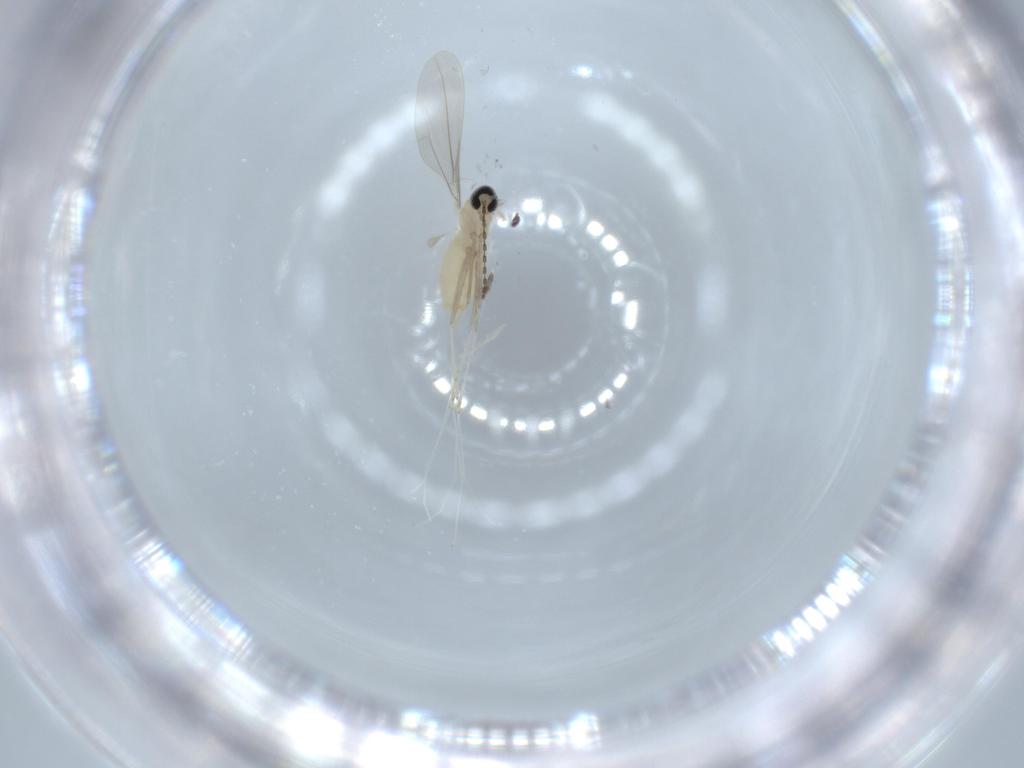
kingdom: Animalia
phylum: Arthropoda
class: Insecta
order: Diptera
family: Cecidomyiidae
